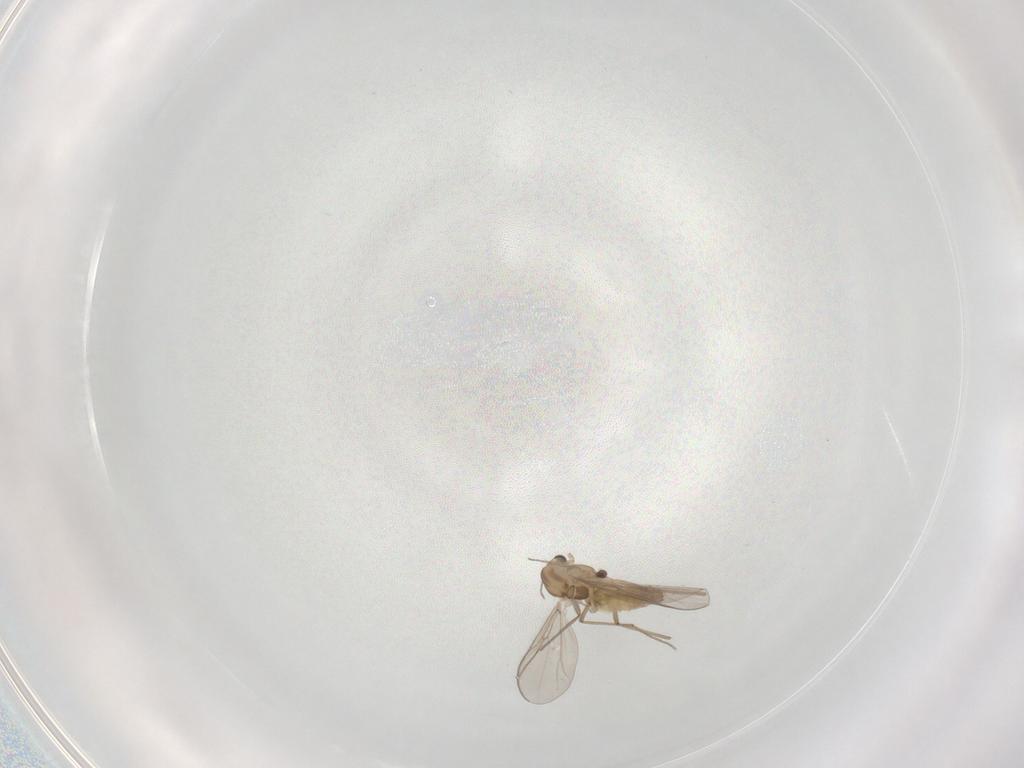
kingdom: Animalia
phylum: Arthropoda
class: Insecta
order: Diptera
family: Chironomidae
